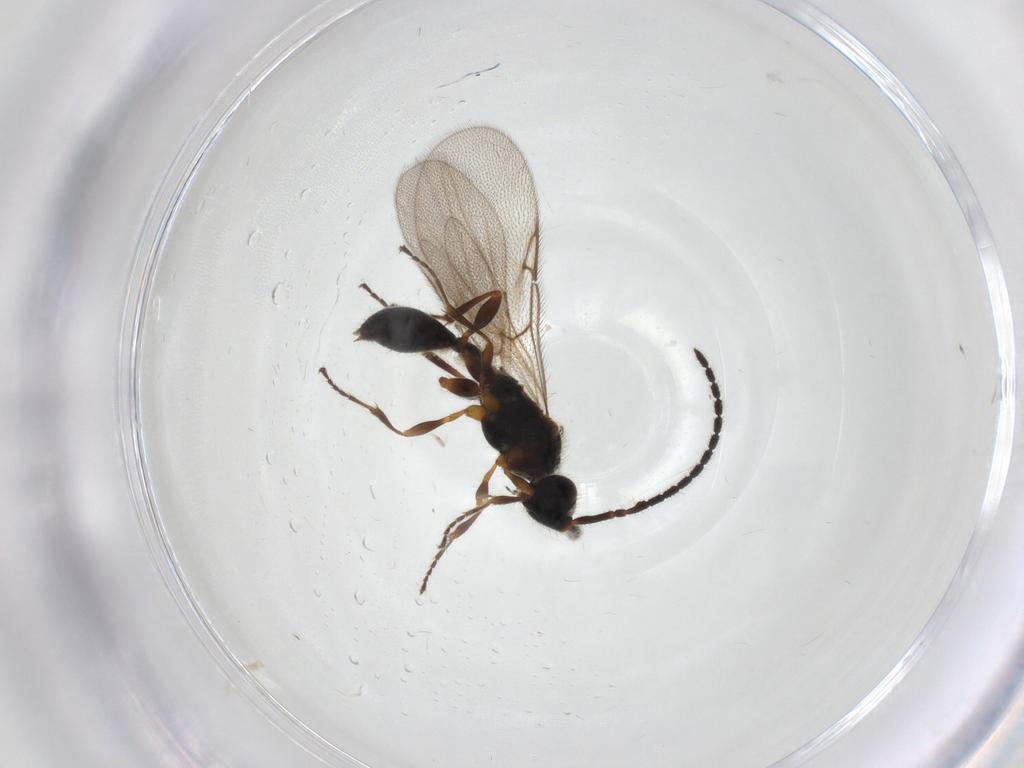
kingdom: Animalia
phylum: Arthropoda
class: Insecta
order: Hymenoptera
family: Diapriidae
